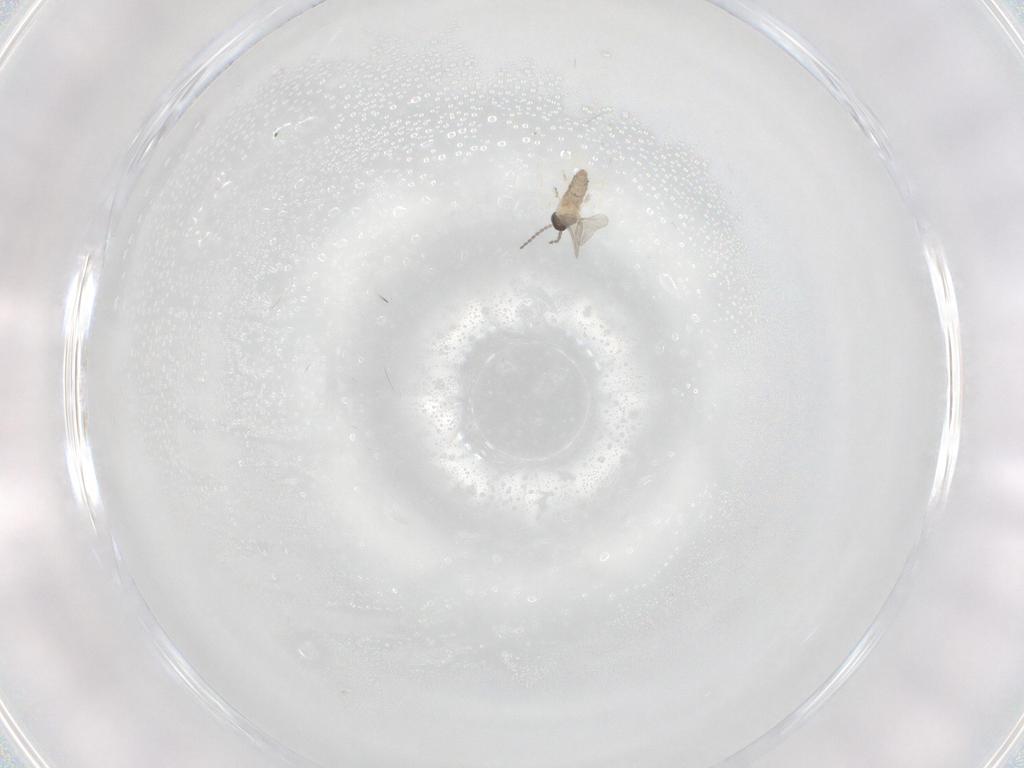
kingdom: Animalia
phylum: Arthropoda
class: Insecta
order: Diptera
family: Cecidomyiidae
